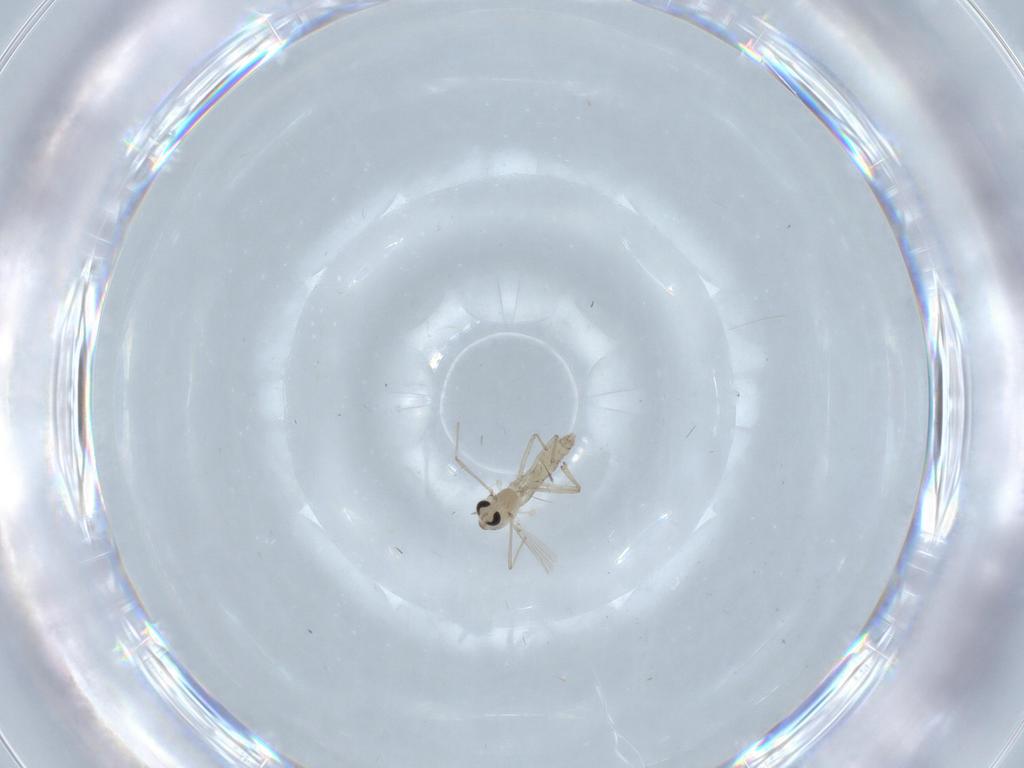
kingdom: Animalia
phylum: Arthropoda
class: Insecta
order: Diptera
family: Chironomidae
